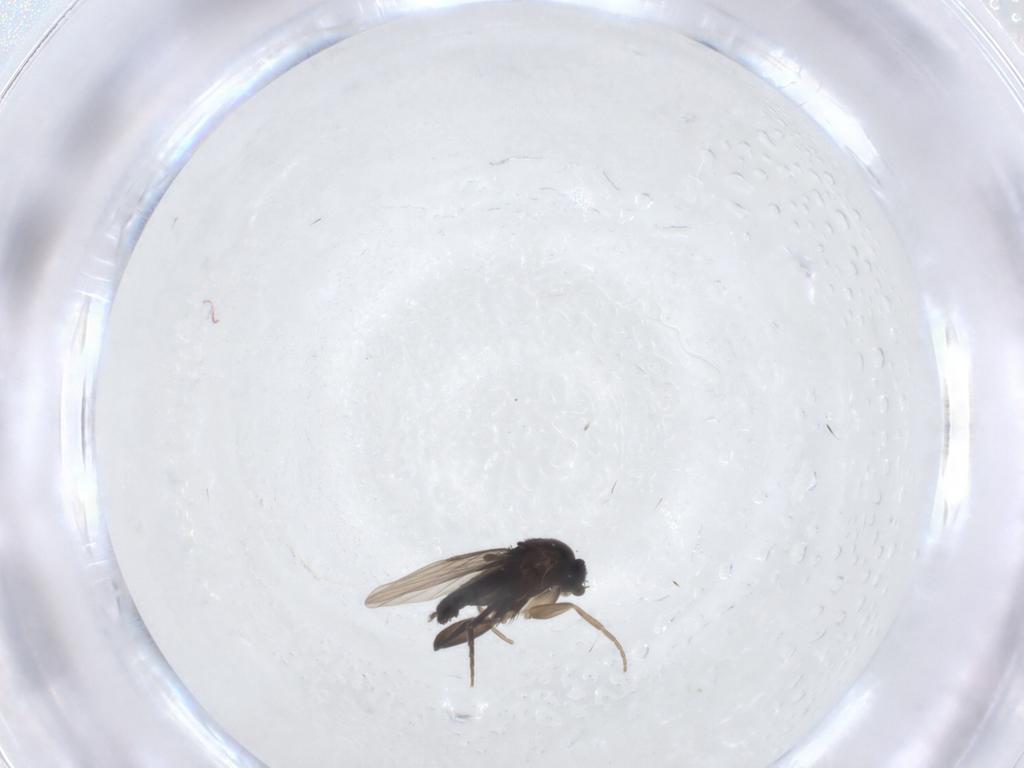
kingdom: Animalia
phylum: Arthropoda
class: Insecta
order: Diptera
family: Phoridae
